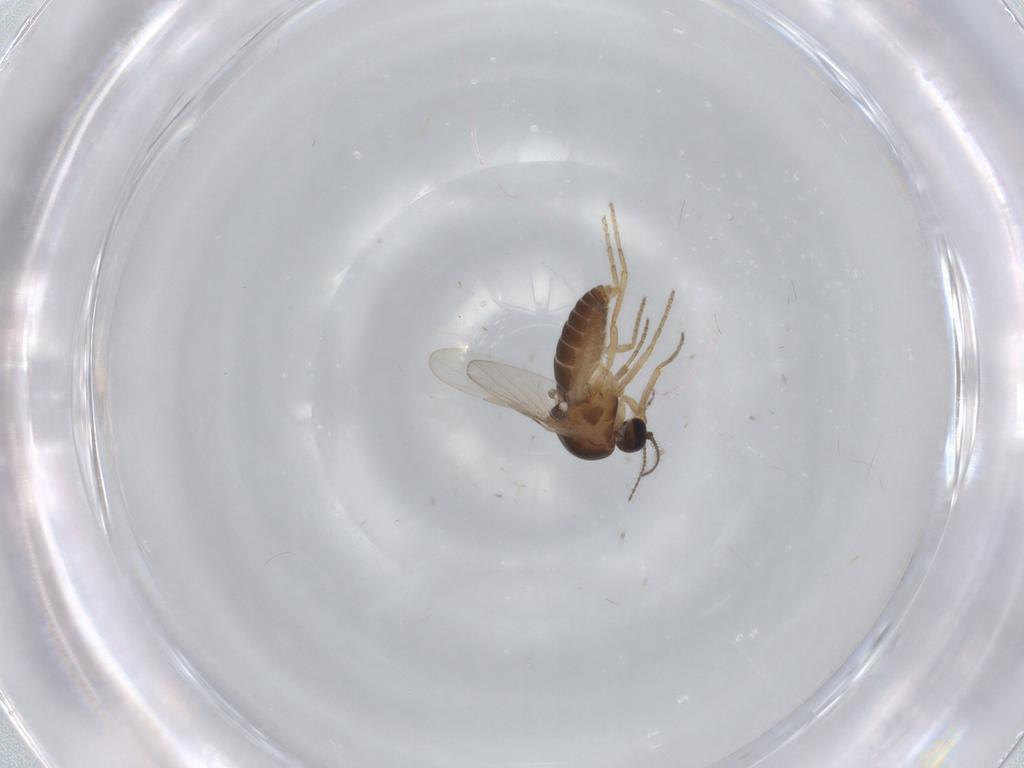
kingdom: Animalia
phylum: Arthropoda
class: Insecta
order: Diptera
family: Ceratopogonidae
